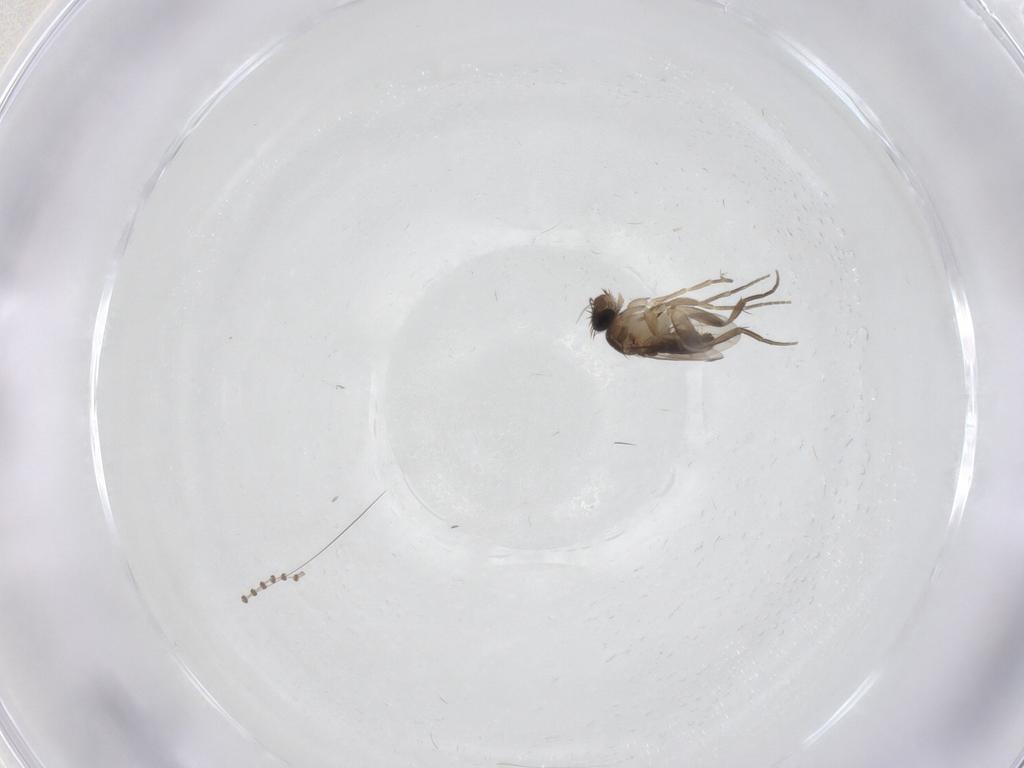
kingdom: Animalia
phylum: Arthropoda
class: Insecta
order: Diptera
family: Phoridae
